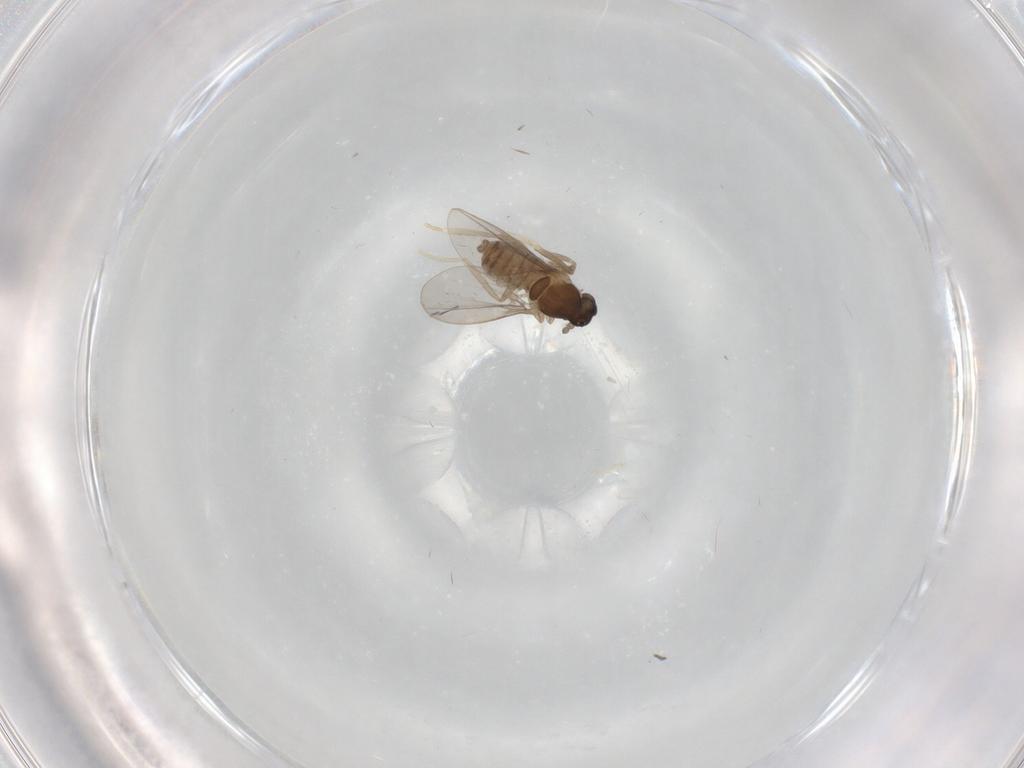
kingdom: Animalia
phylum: Arthropoda
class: Insecta
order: Diptera
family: Cecidomyiidae
